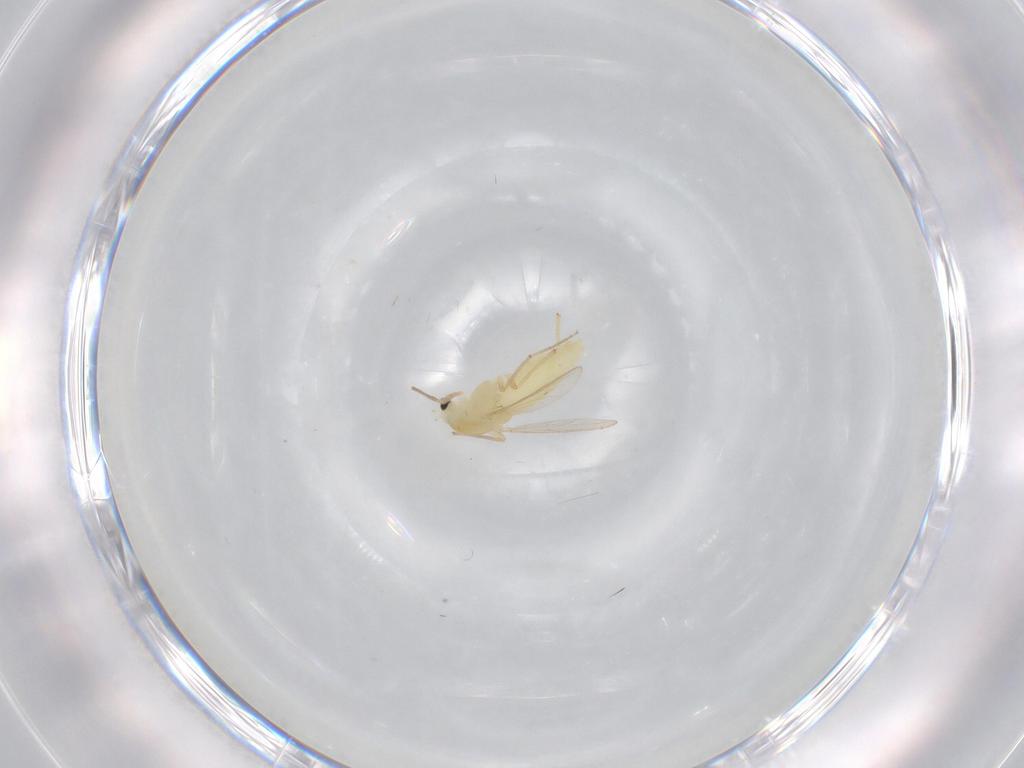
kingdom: Animalia
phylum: Arthropoda
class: Insecta
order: Diptera
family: Chironomidae
